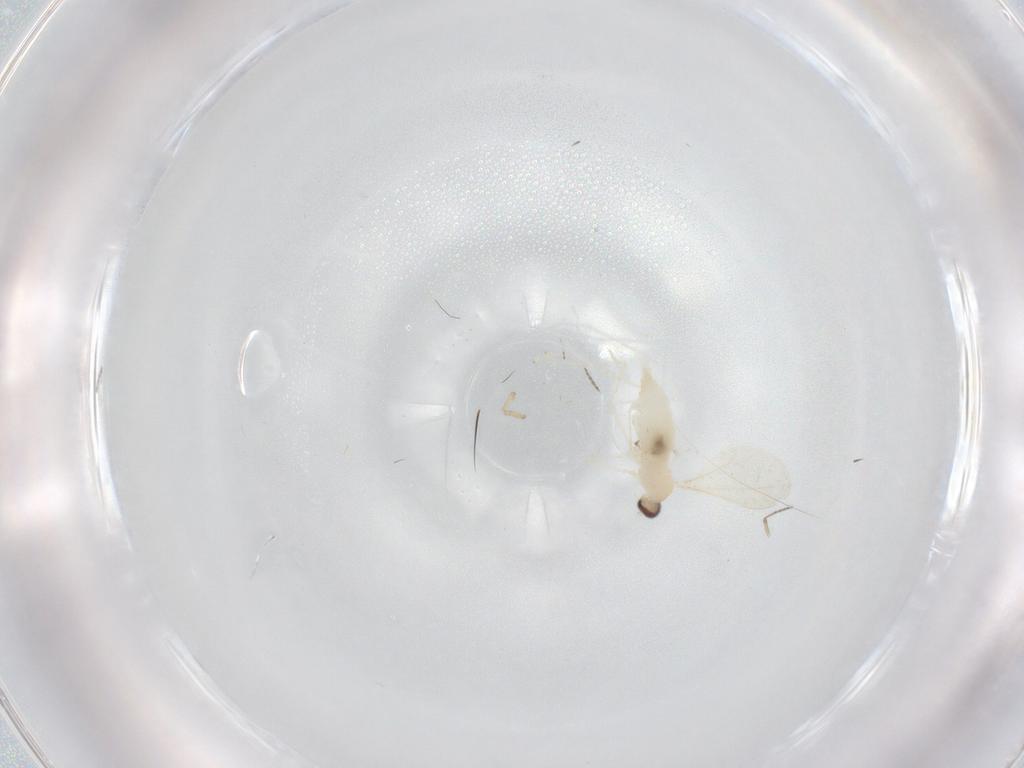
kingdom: Animalia
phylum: Arthropoda
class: Insecta
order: Diptera
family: Cecidomyiidae
